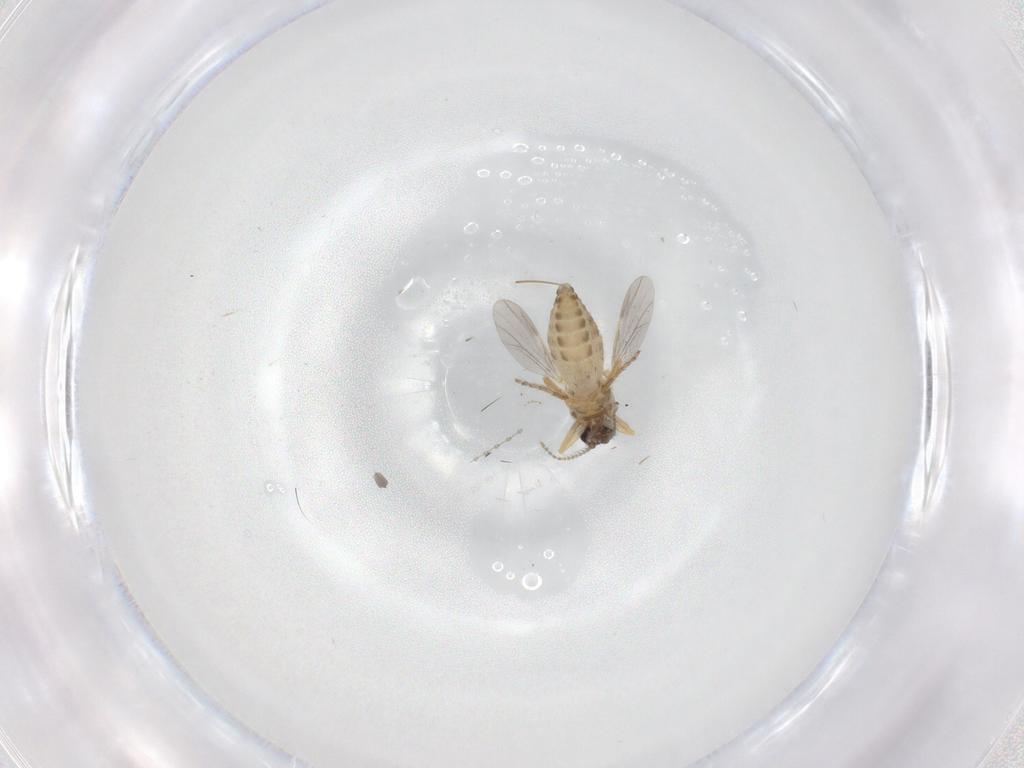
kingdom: Animalia
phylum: Arthropoda
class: Insecta
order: Diptera
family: Ceratopogonidae
